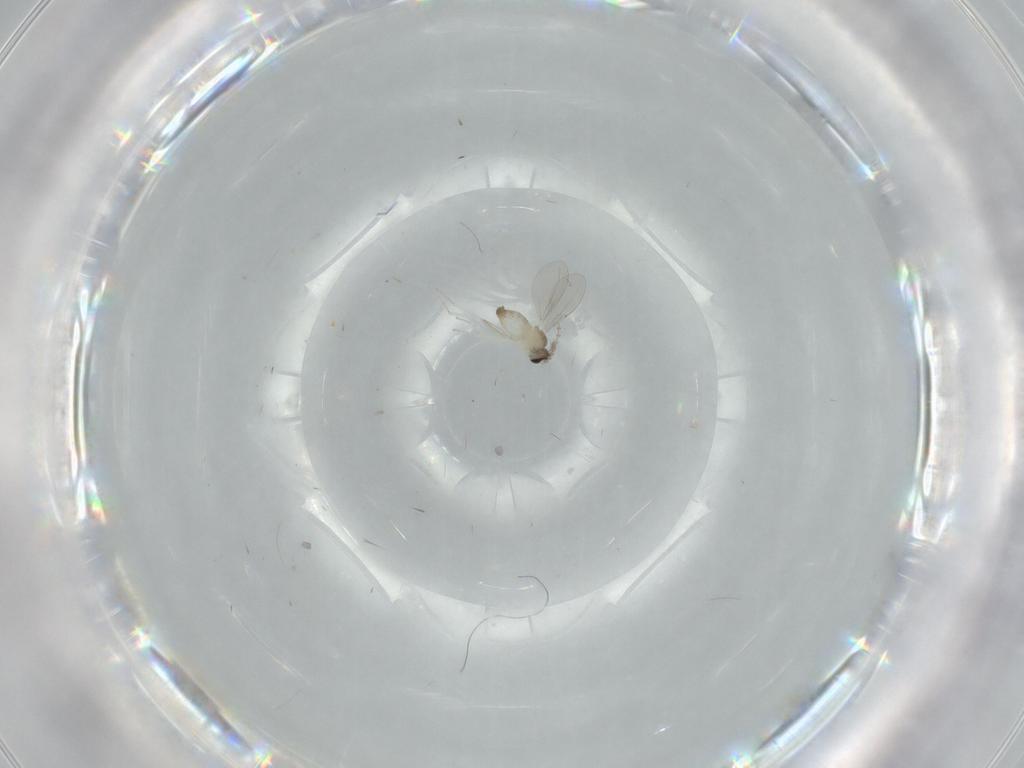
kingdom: Animalia
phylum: Arthropoda
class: Insecta
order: Diptera
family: Cecidomyiidae
